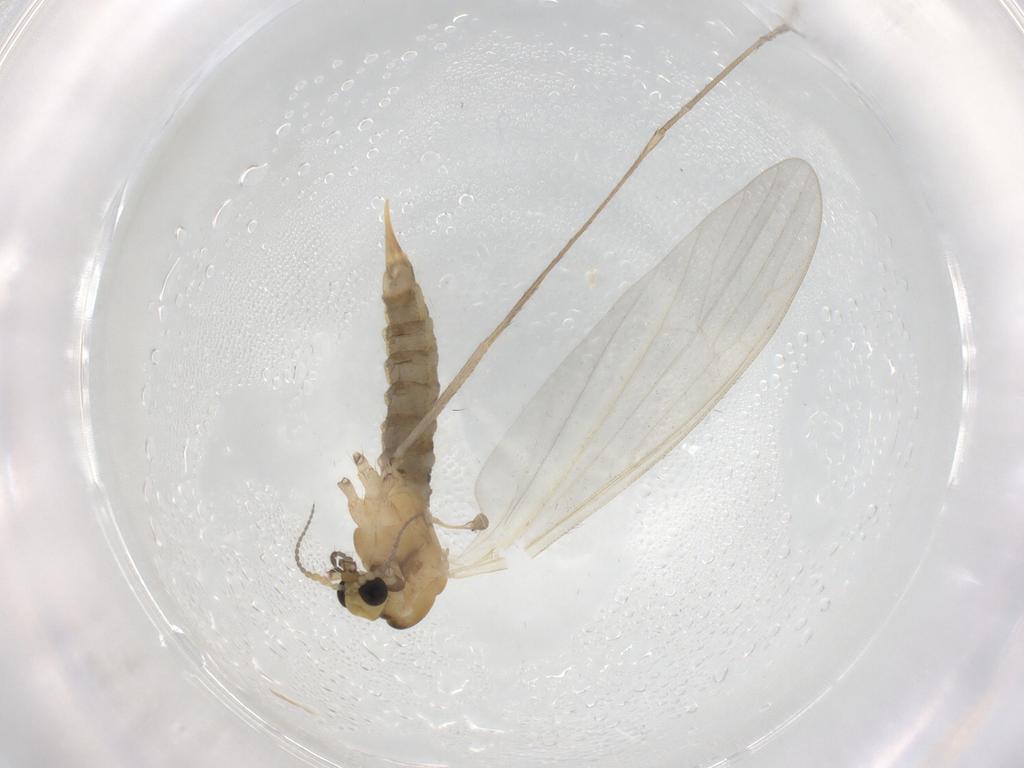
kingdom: Animalia
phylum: Arthropoda
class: Insecta
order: Diptera
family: Limoniidae
